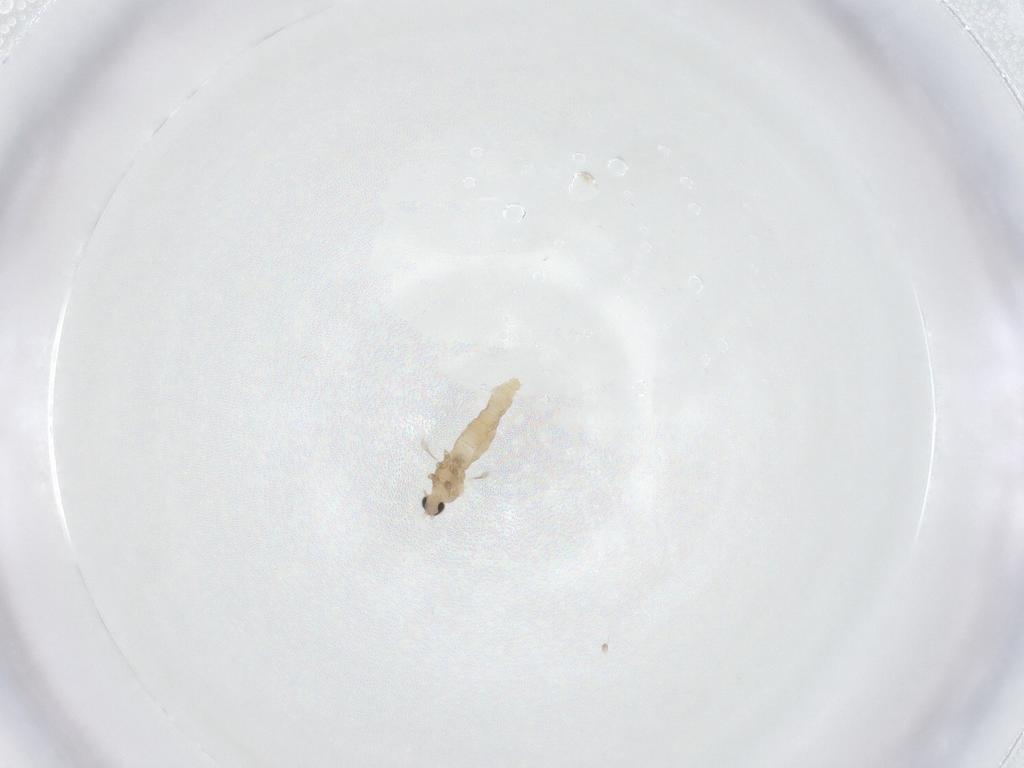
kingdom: Animalia
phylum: Arthropoda
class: Insecta
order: Diptera
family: Cecidomyiidae
